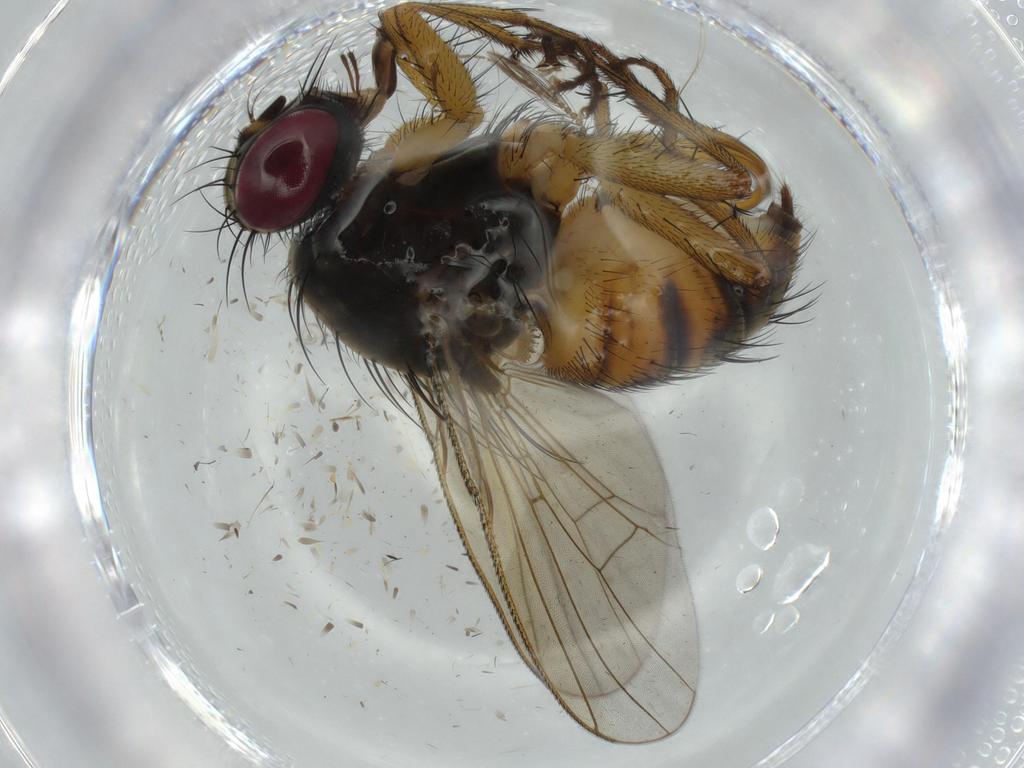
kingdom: Animalia
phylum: Arthropoda
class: Insecta
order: Diptera
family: Muscidae
